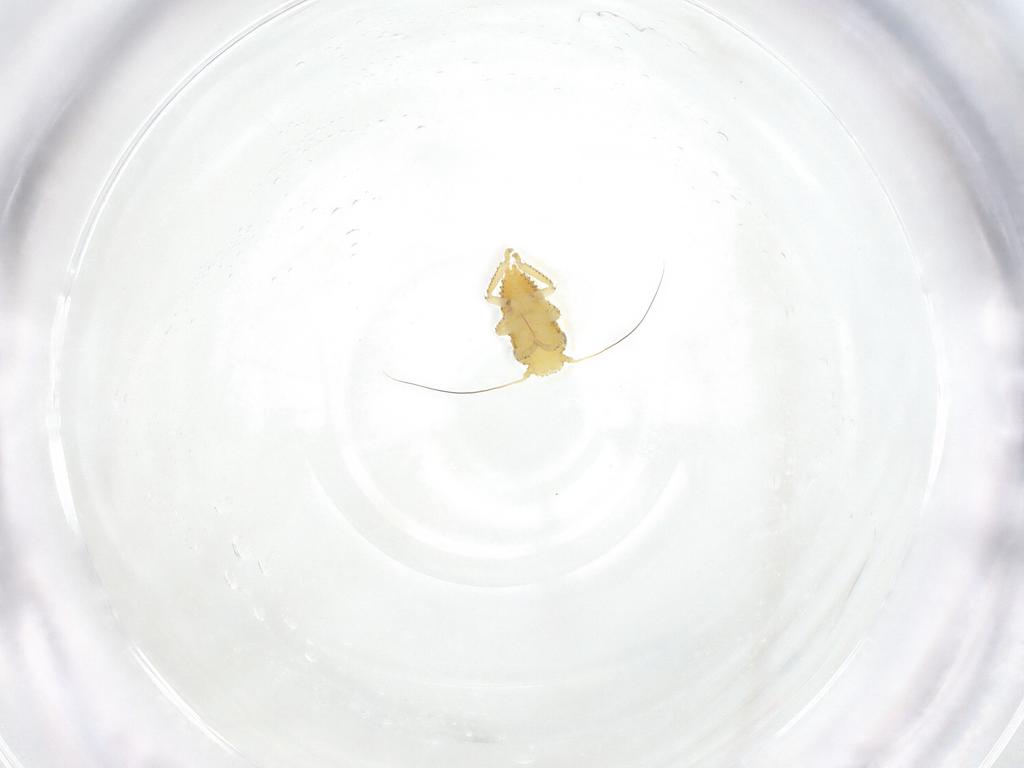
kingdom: Animalia
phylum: Arthropoda
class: Insecta
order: Hemiptera
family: Cicadellidae
